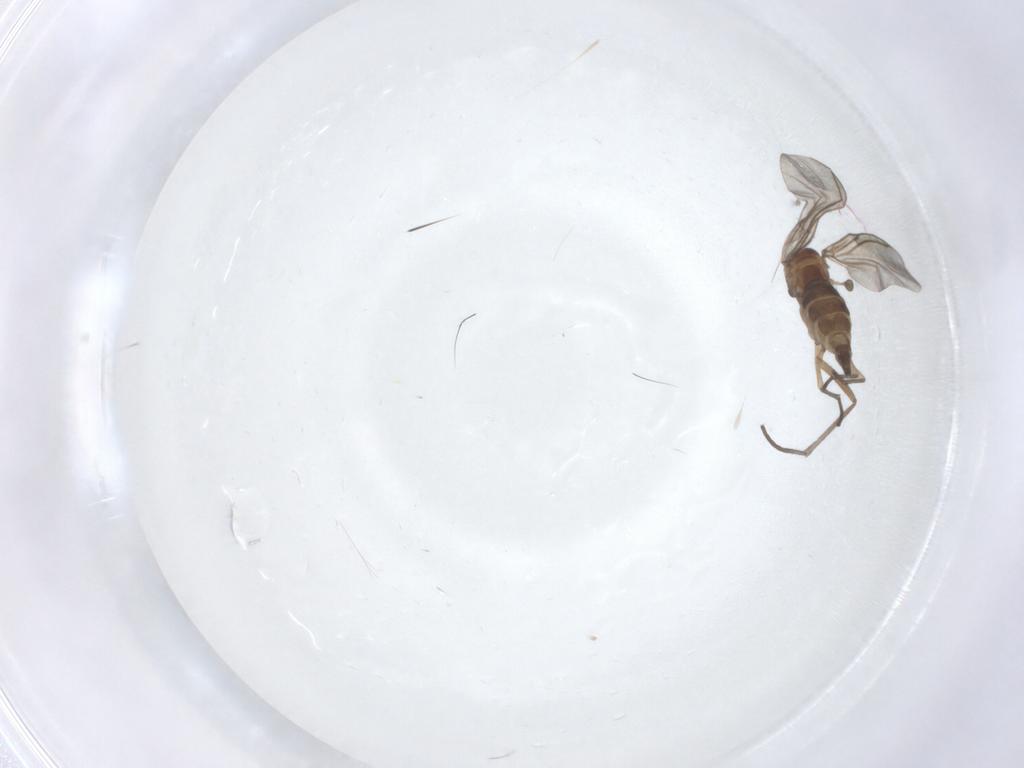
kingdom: Animalia
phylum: Arthropoda
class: Insecta
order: Diptera
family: Sciaridae
